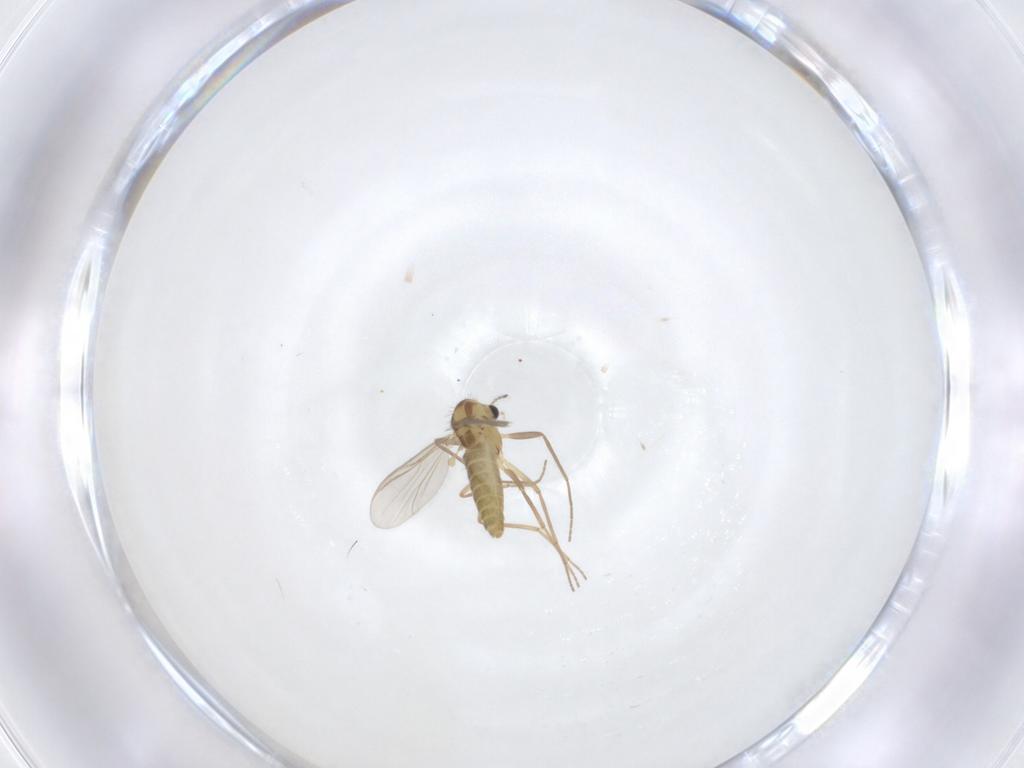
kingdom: Animalia
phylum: Arthropoda
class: Insecta
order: Diptera
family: Chironomidae
